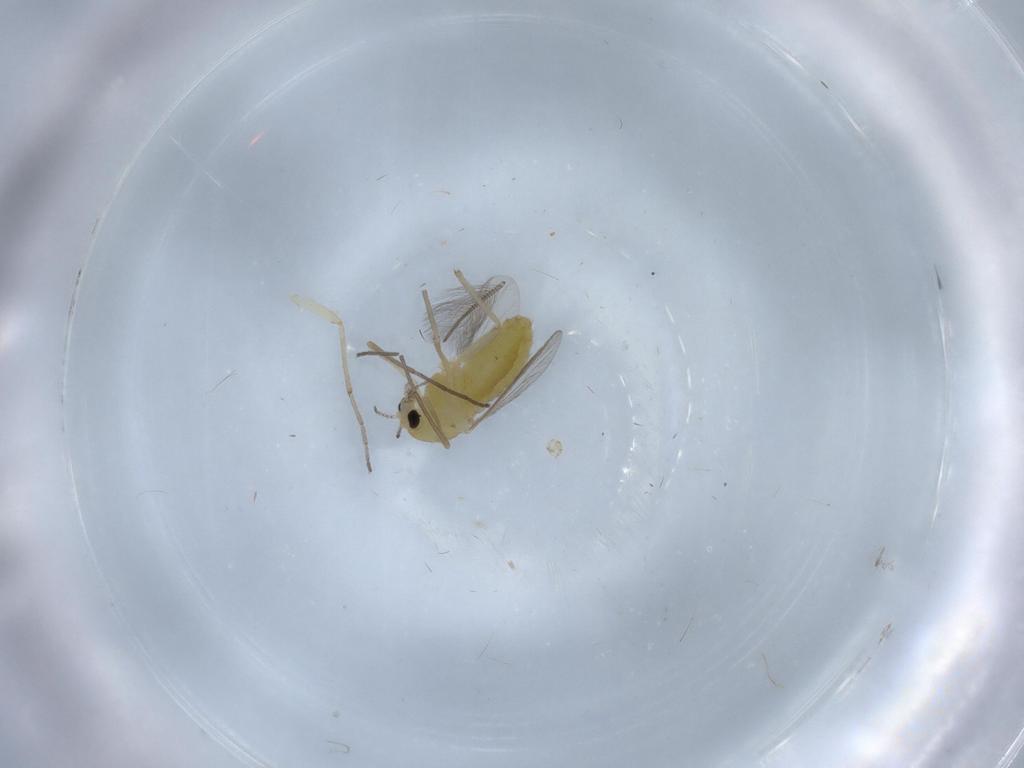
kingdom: Animalia
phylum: Arthropoda
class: Insecta
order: Diptera
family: Chironomidae
